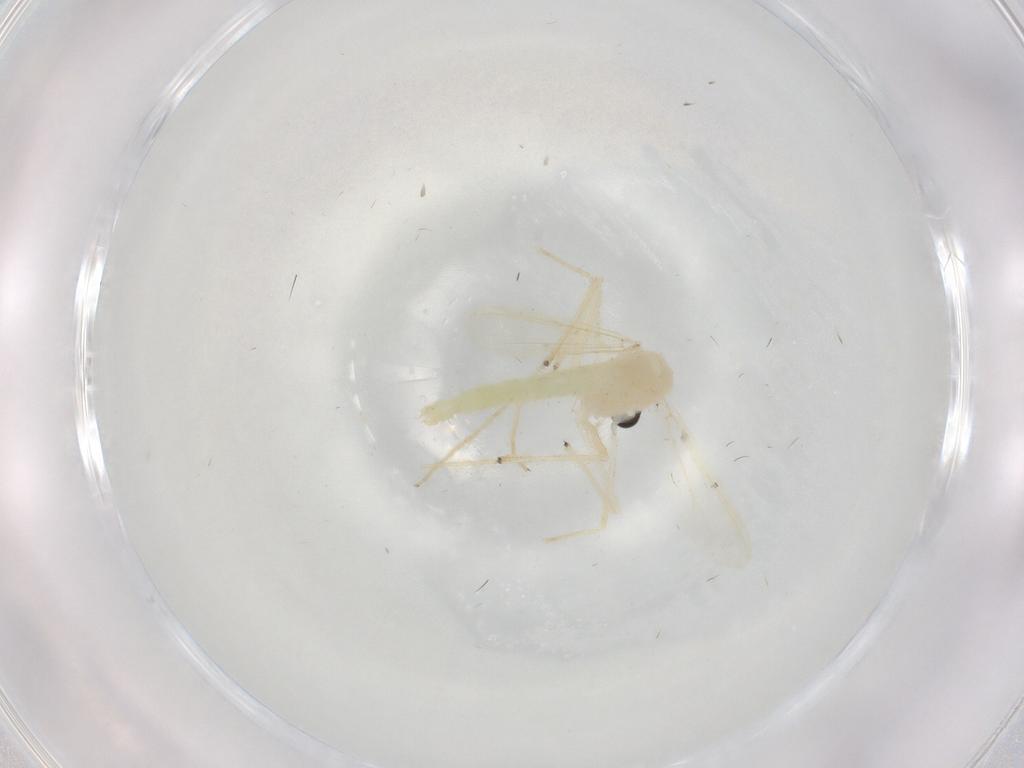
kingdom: Animalia
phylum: Arthropoda
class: Insecta
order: Diptera
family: Chironomidae
